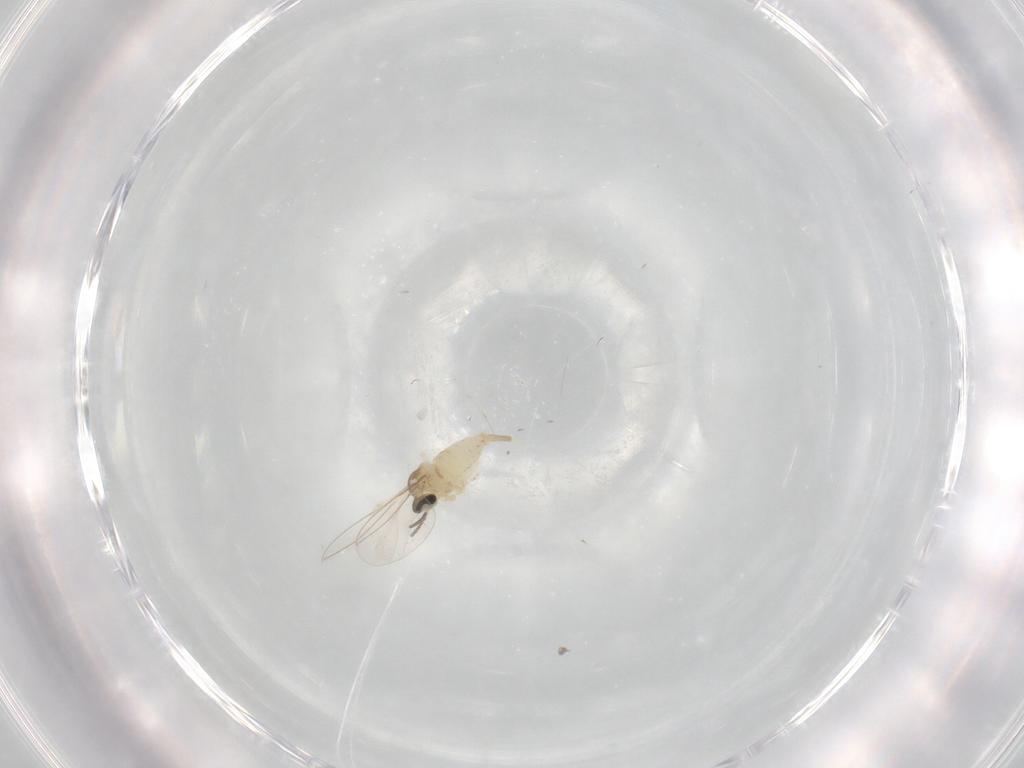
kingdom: Animalia
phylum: Arthropoda
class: Insecta
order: Diptera
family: Cecidomyiidae
